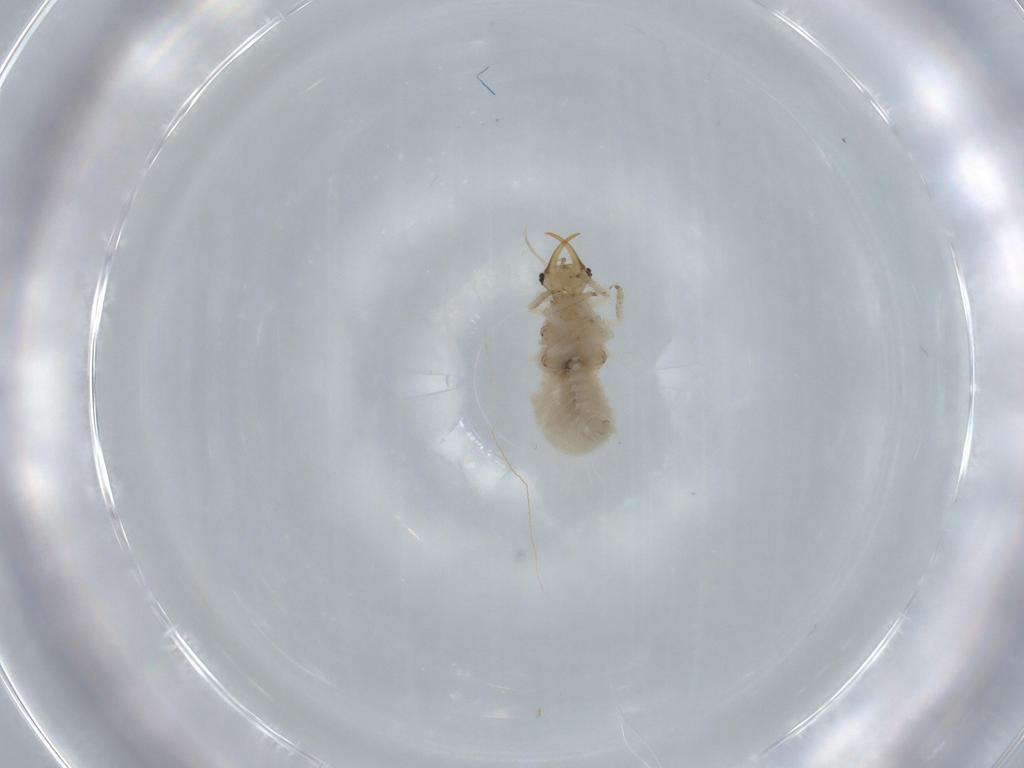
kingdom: Animalia
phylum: Arthropoda
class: Insecta
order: Neuroptera
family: Chrysopidae
